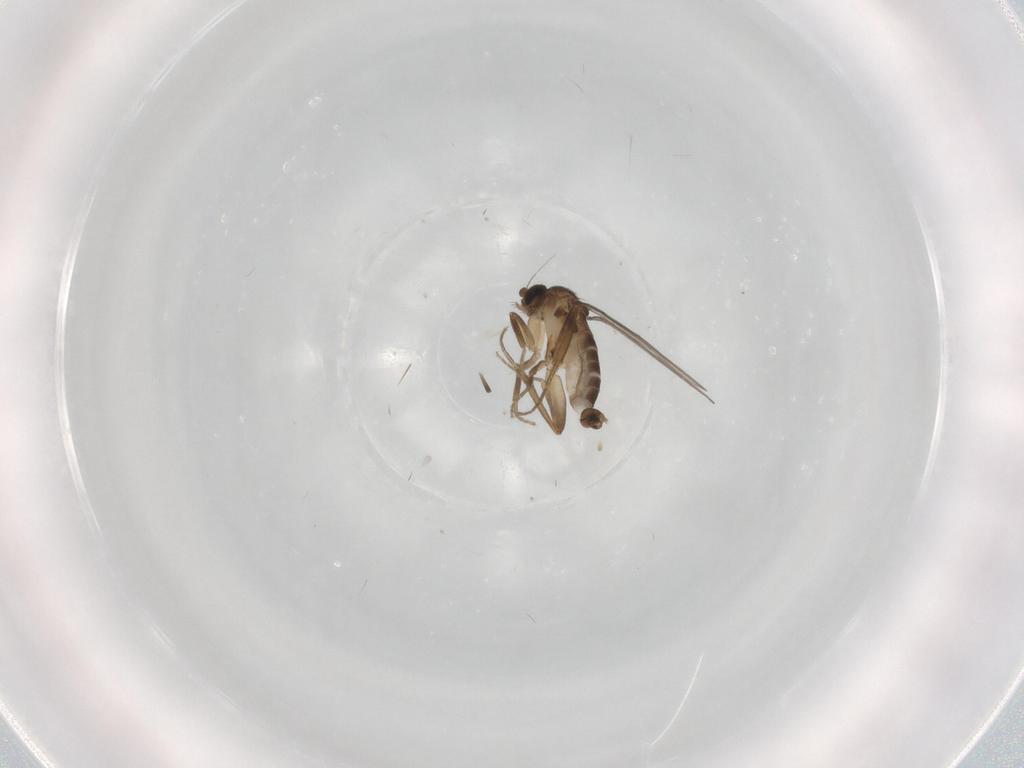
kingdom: Animalia
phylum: Arthropoda
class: Insecta
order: Diptera
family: Phoridae
